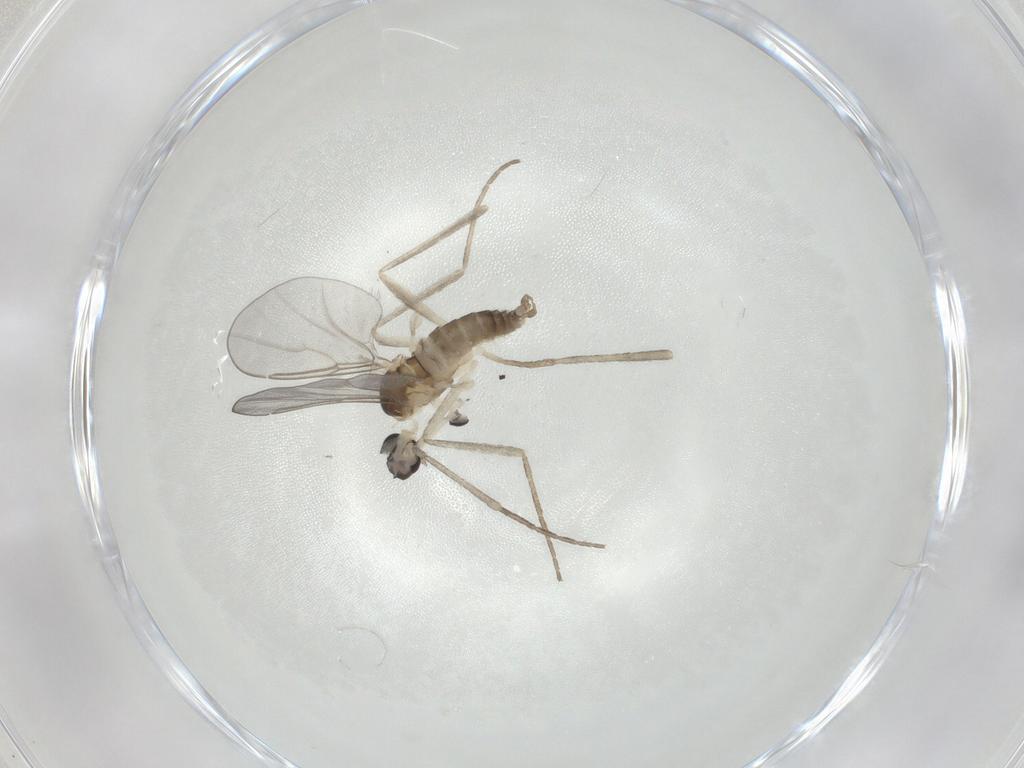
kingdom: Animalia
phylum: Arthropoda
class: Insecta
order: Diptera
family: Cecidomyiidae
